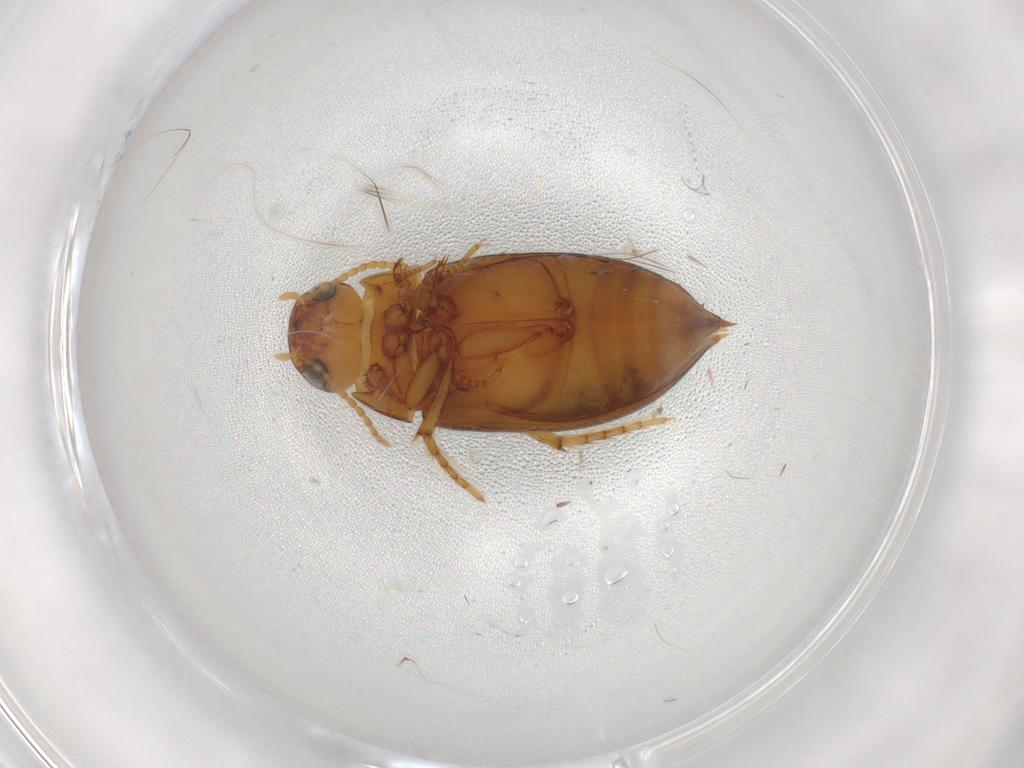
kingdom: Animalia
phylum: Arthropoda
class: Insecta
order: Coleoptera
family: Dytiscidae
